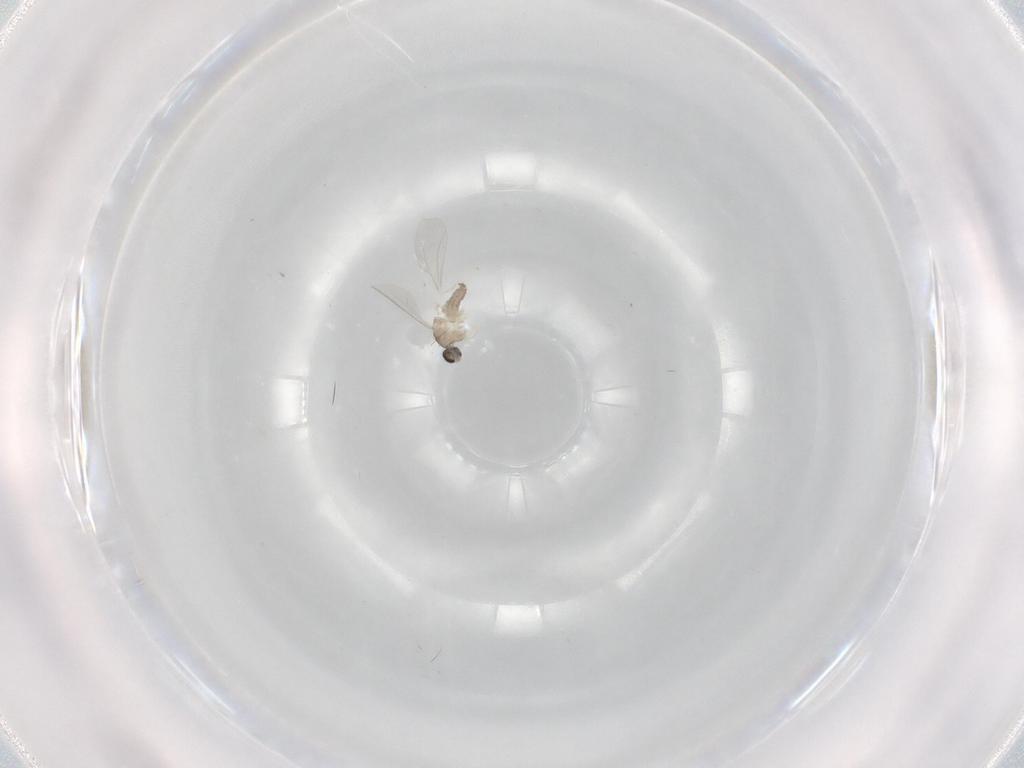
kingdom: Animalia
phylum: Arthropoda
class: Insecta
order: Diptera
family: Cecidomyiidae
